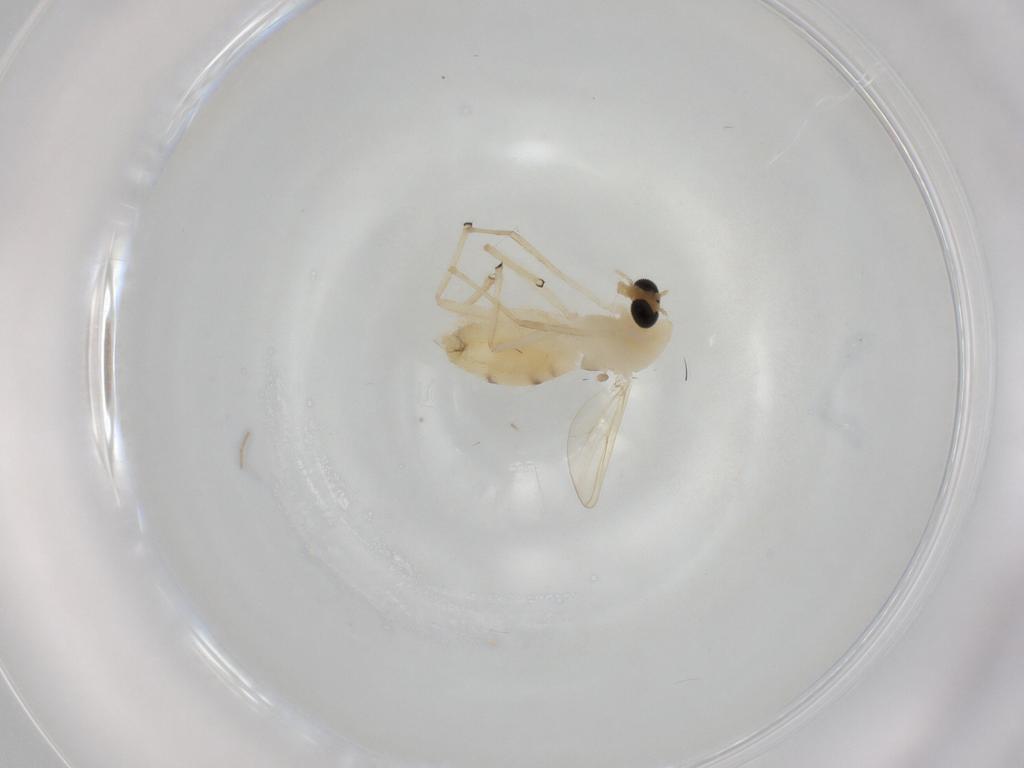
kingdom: Animalia
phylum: Arthropoda
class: Insecta
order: Diptera
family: Chironomidae
